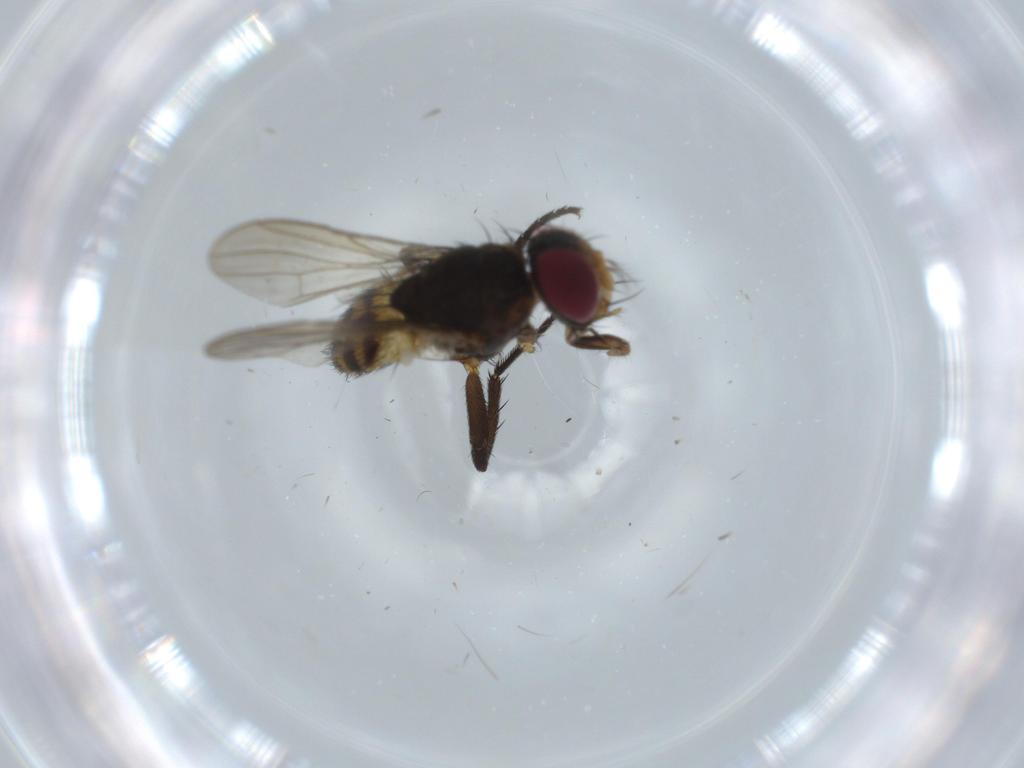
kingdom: Animalia
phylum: Arthropoda
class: Insecta
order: Diptera
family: Anthomyiidae
